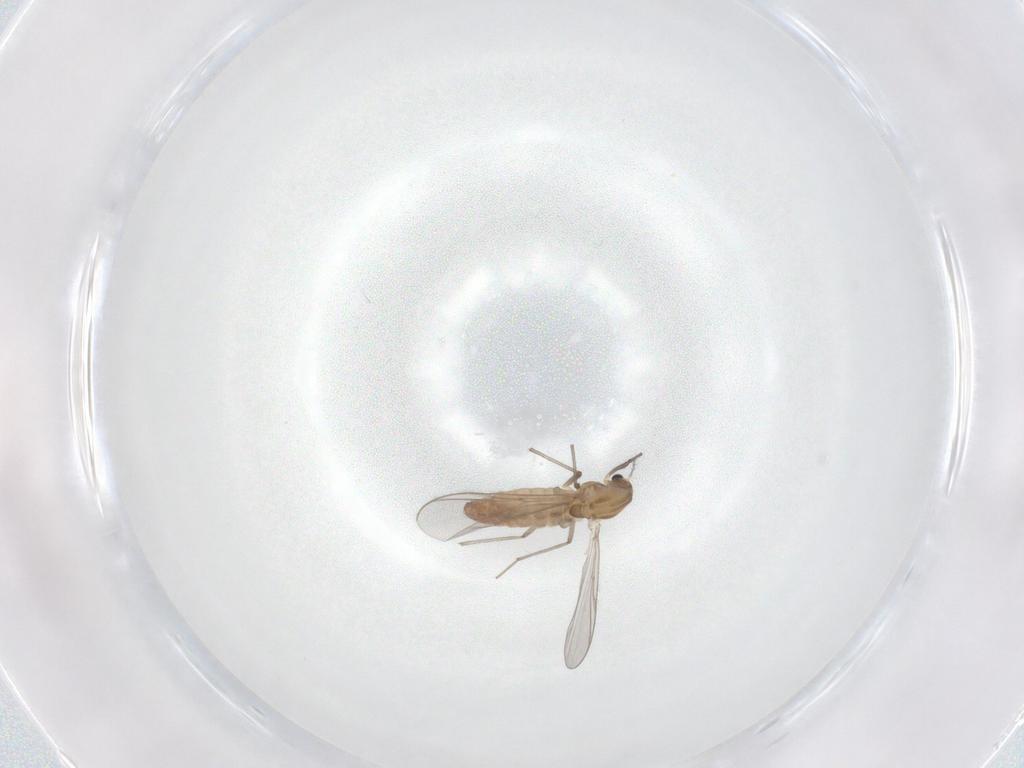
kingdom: Animalia
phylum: Arthropoda
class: Insecta
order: Diptera
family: Chironomidae
